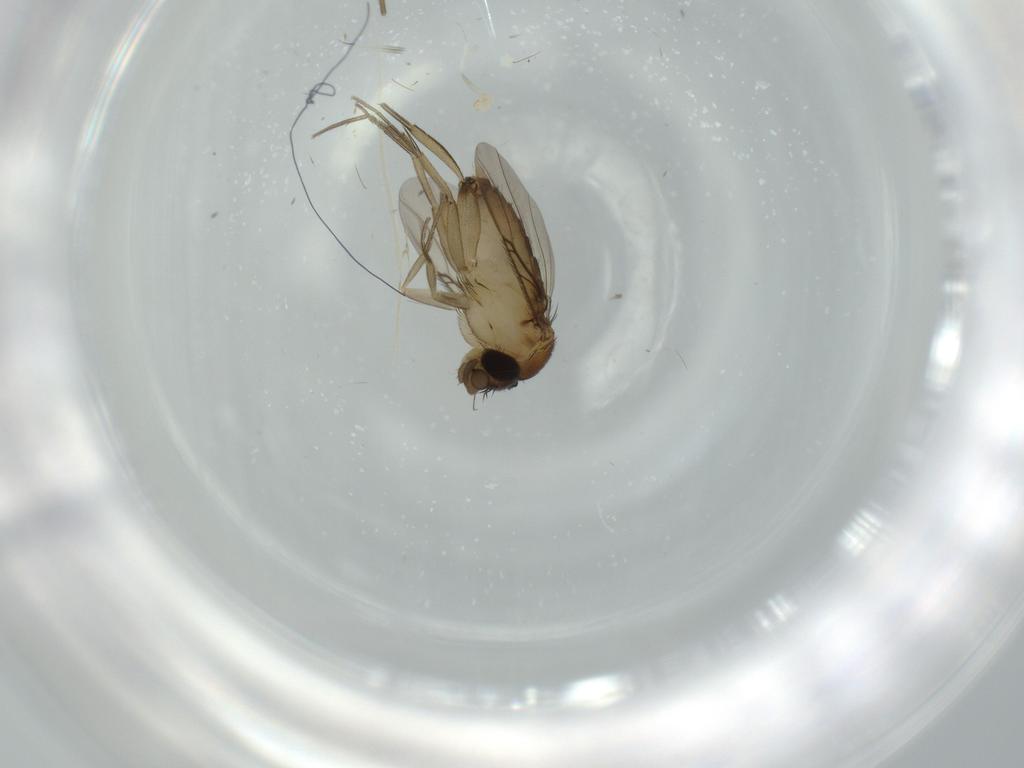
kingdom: Animalia
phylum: Arthropoda
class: Insecta
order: Diptera
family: Phoridae
